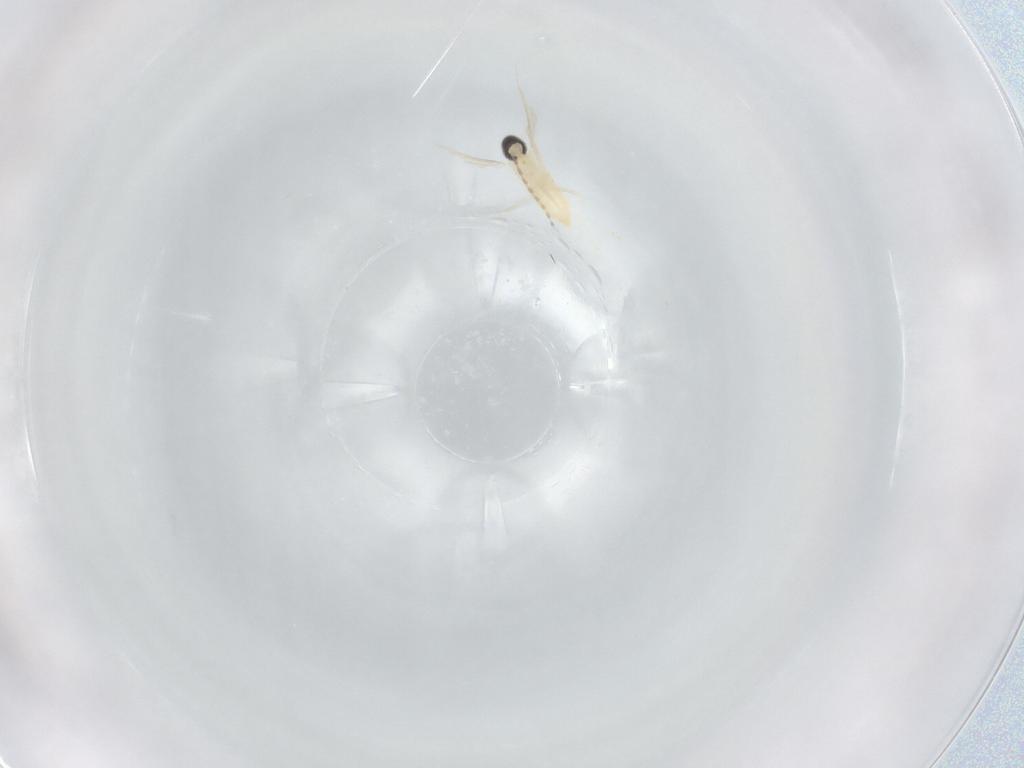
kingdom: Animalia
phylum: Arthropoda
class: Insecta
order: Diptera
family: Cecidomyiidae
